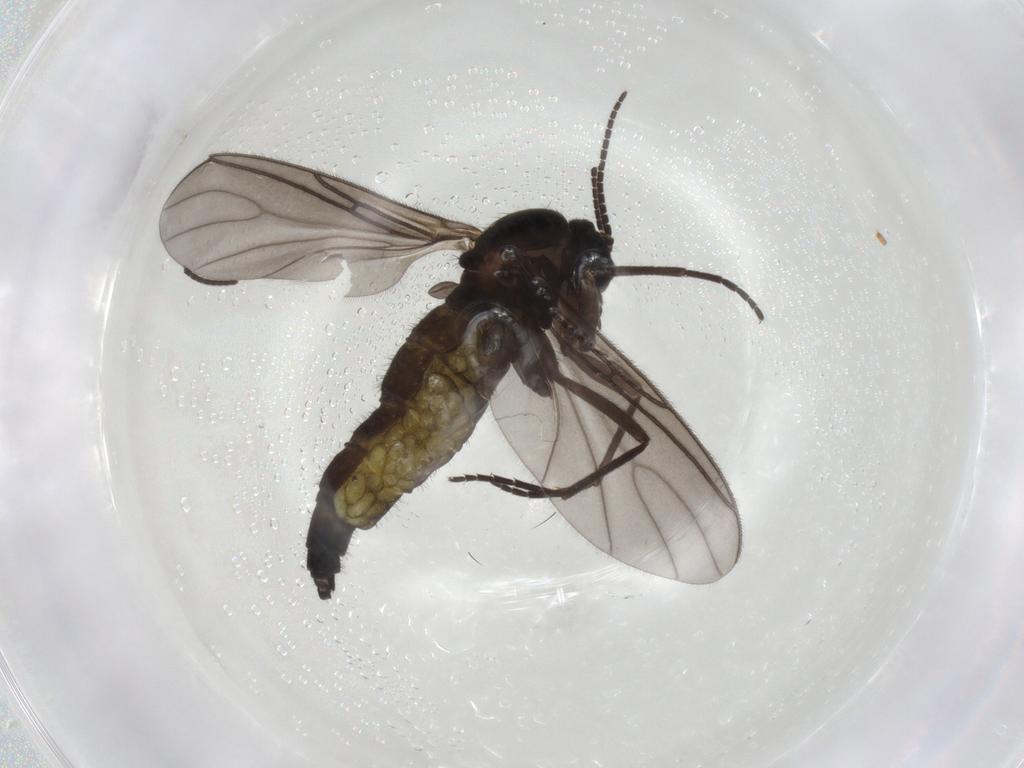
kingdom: Animalia
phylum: Arthropoda
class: Insecta
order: Diptera
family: Sciaridae
